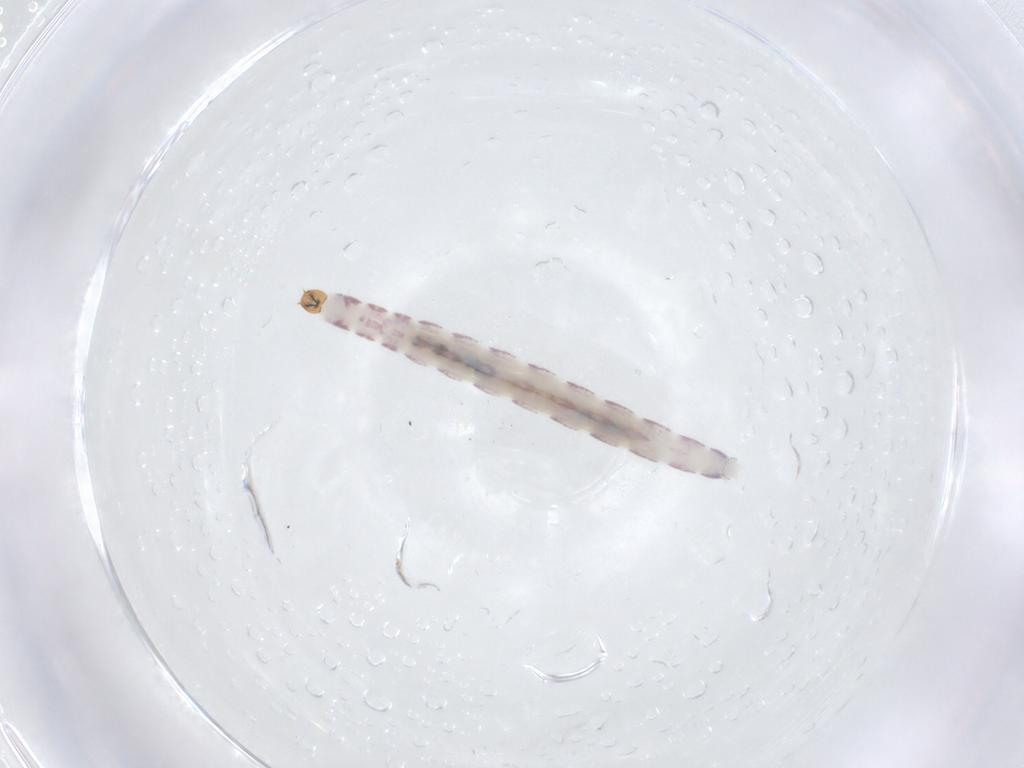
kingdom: Animalia
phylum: Arthropoda
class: Insecta
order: Diptera
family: Chironomidae
